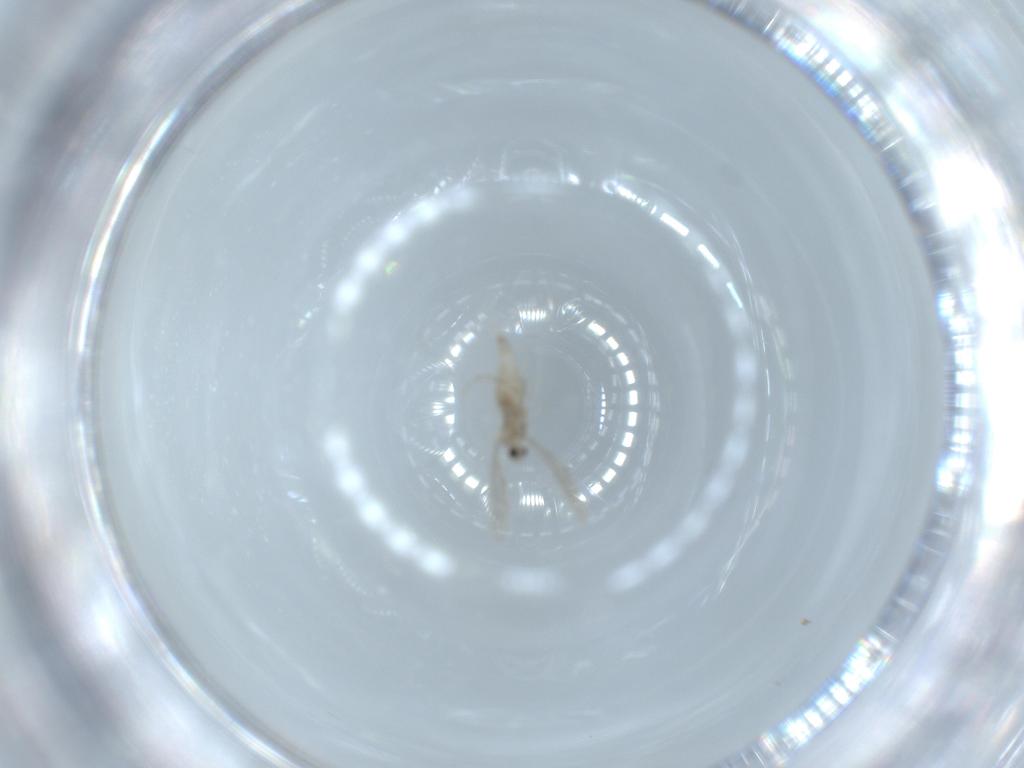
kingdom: Animalia
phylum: Arthropoda
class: Insecta
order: Diptera
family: Cecidomyiidae
